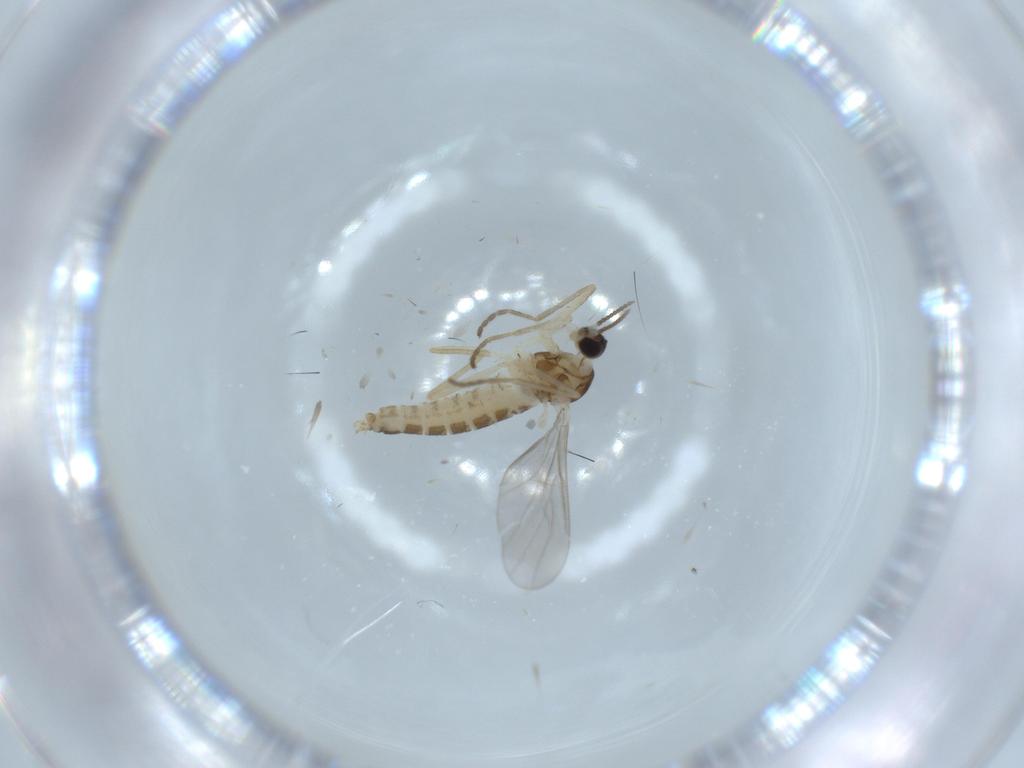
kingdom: Animalia
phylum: Arthropoda
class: Insecta
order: Diptera
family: Cecidomyiidae
